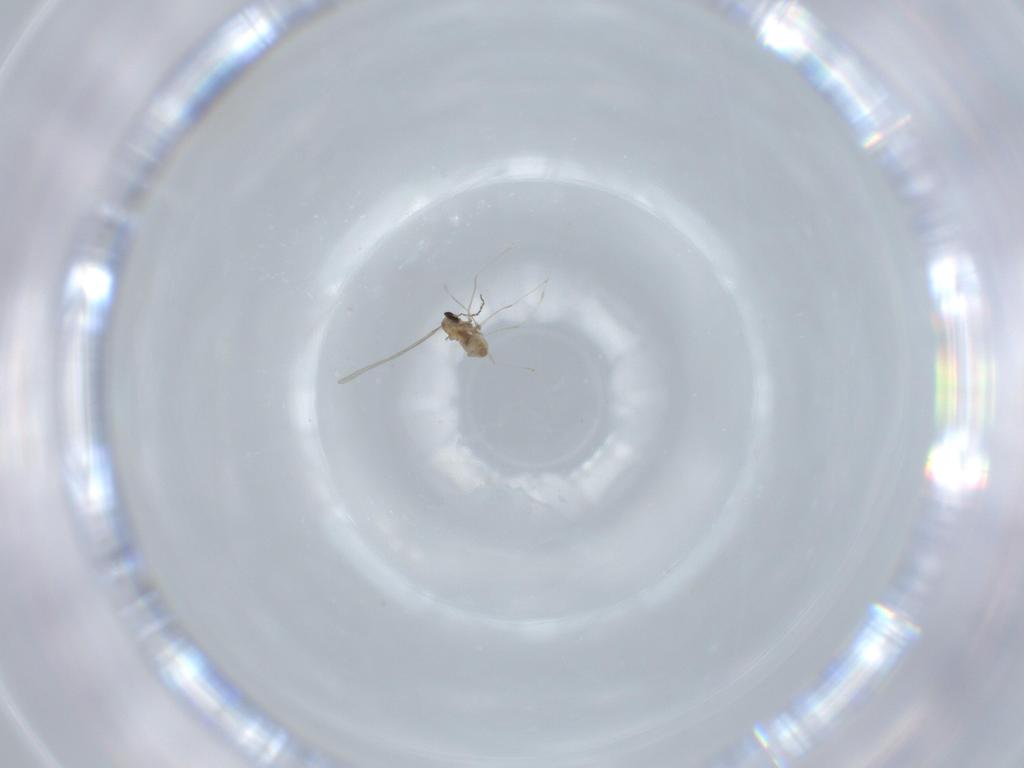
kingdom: Animalia
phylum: Arthropoda
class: Insecta
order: Diptera
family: Cecidomyiidae
